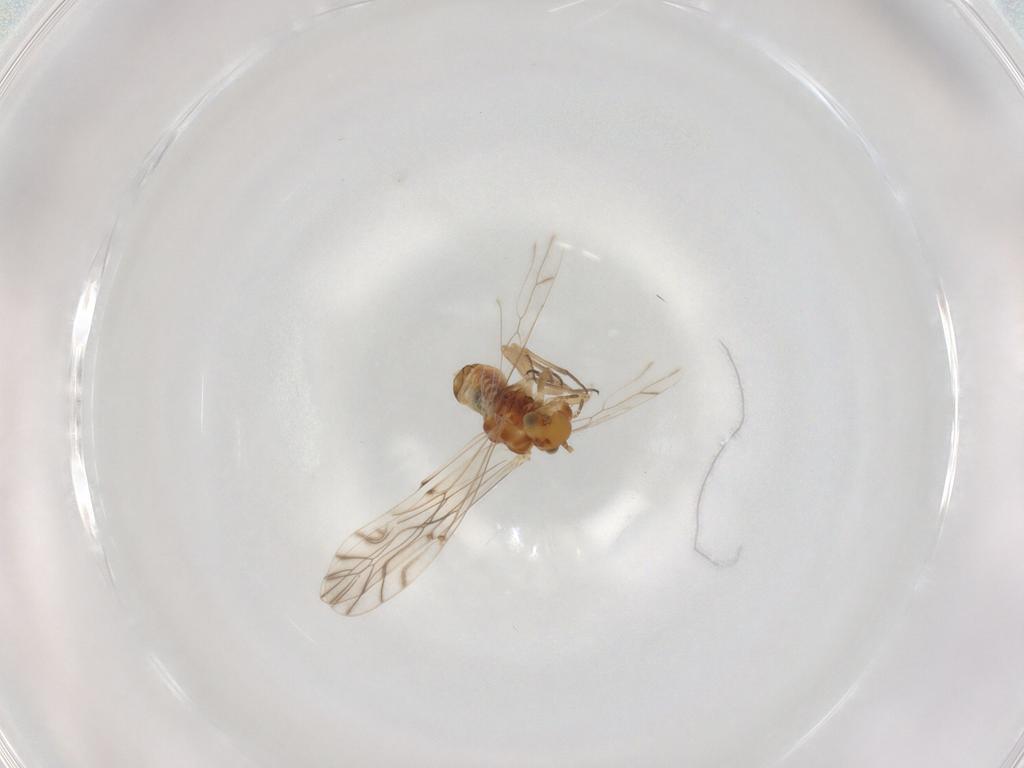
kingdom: Animalia
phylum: Arthropoda
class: Insecta
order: Psocodea
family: Lachesillidae
